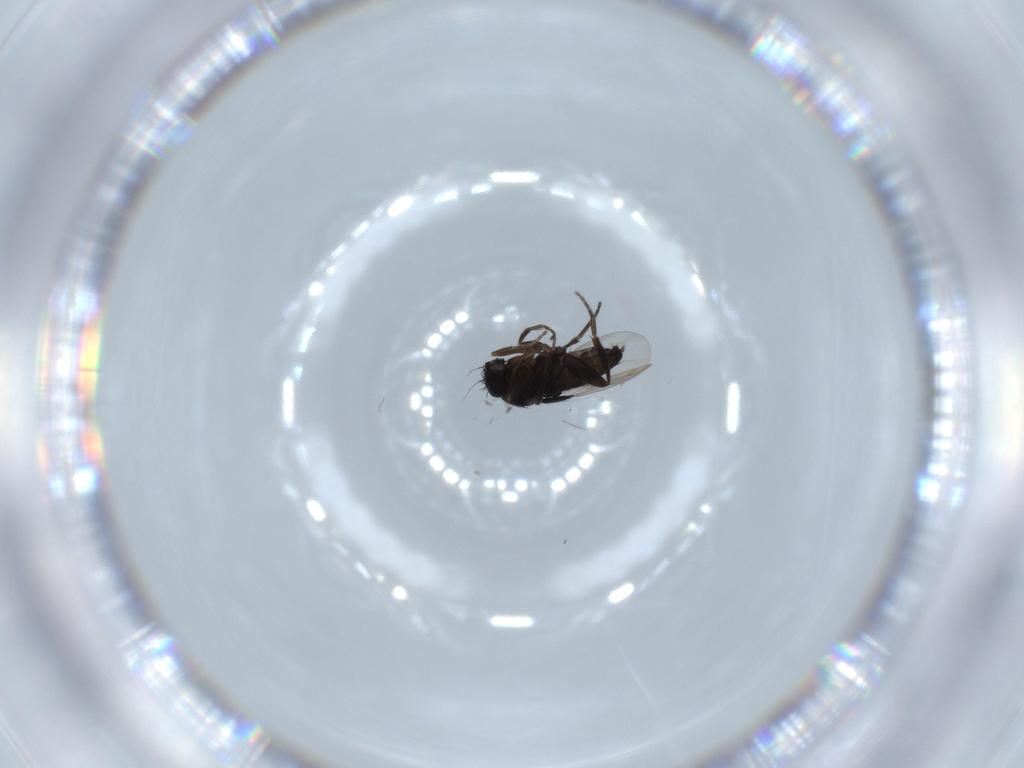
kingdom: Animalia
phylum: Arthropoda
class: Insecta
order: Diptera
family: Phoridae
